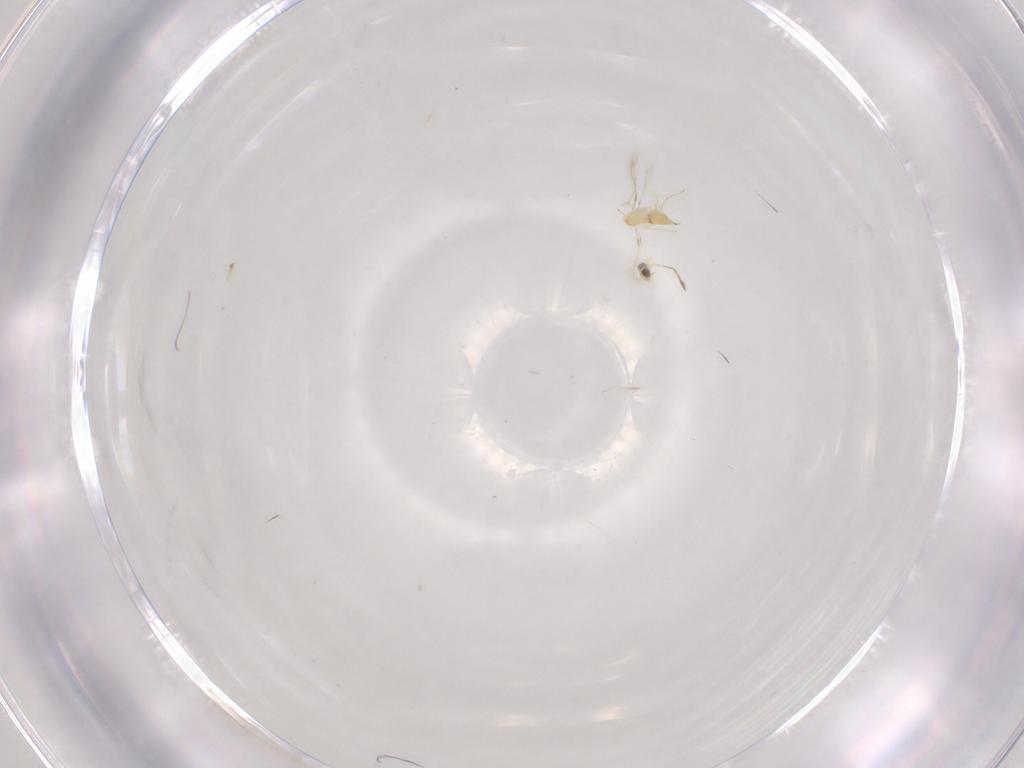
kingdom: Animalia
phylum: Arthropoda
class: Insecta
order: Hymenoptera
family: Mymaridae
